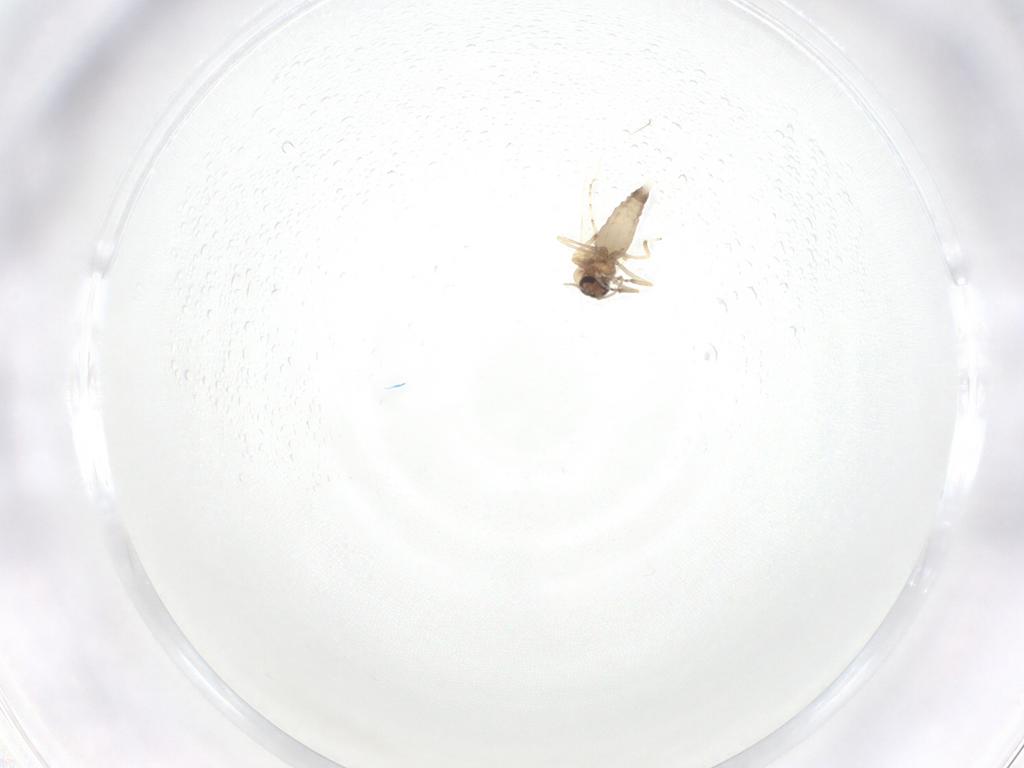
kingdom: Animalia
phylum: Arthropoda
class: Insecta
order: Diptera
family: Ceratopogonidae
